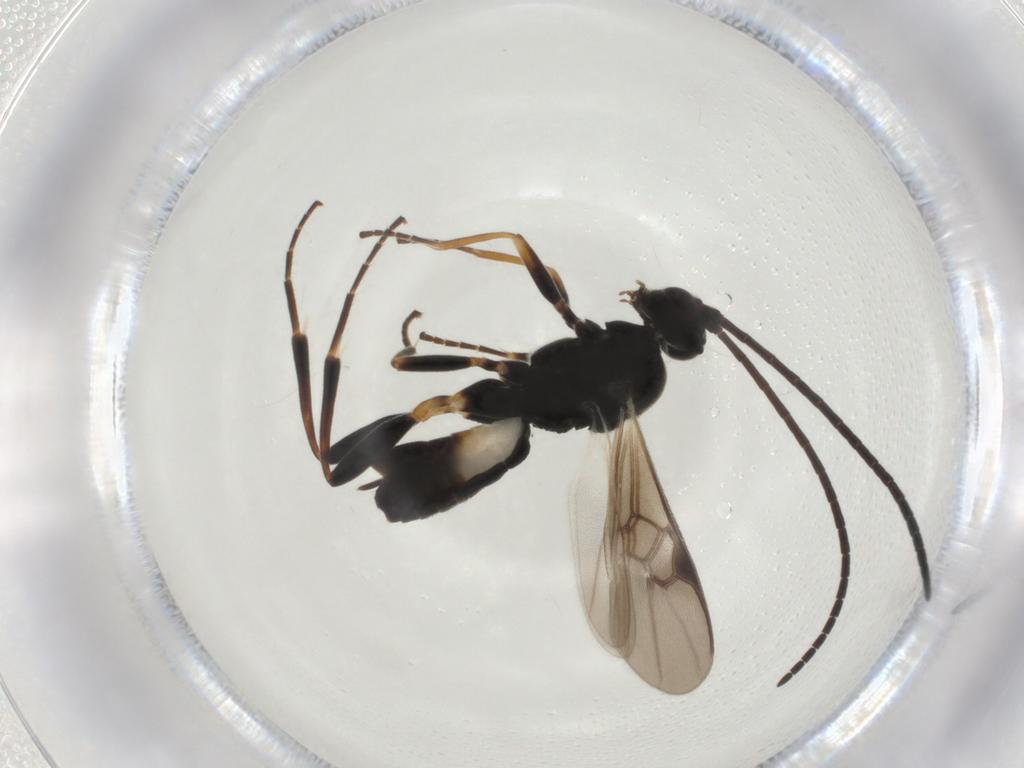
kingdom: Animalia
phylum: Arthropoda
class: Insecta
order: Hymenoptera
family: Braconidae
